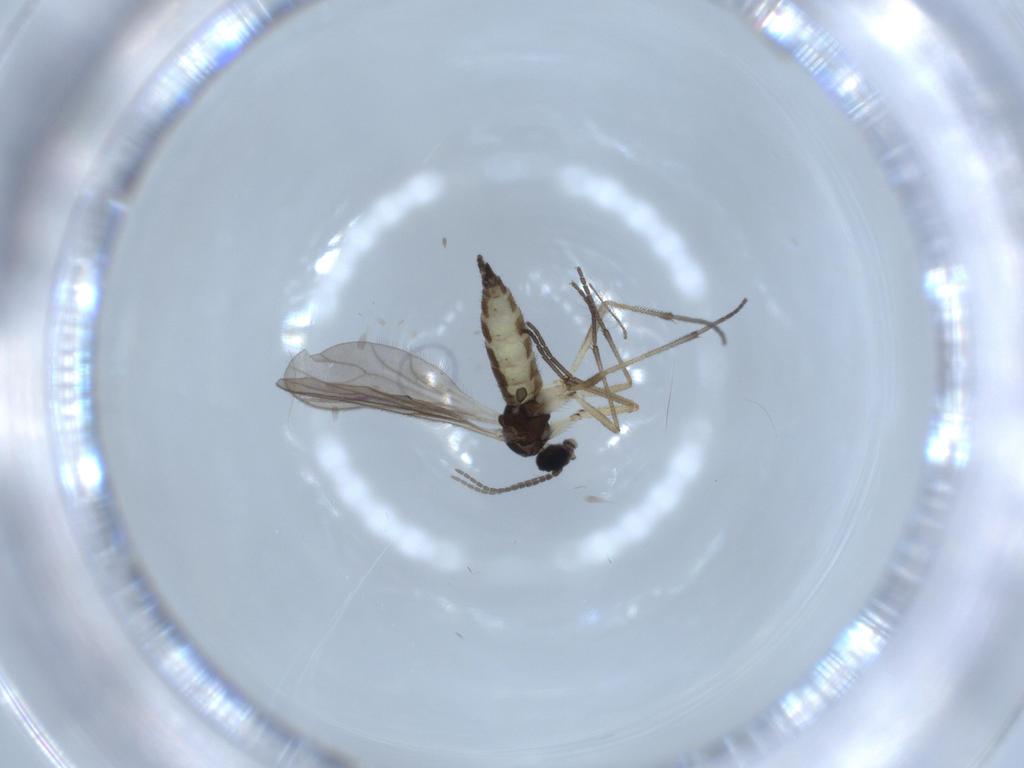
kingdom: Animalia
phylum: Arthropoda
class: Insecta
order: Diptera
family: Sciaridae
